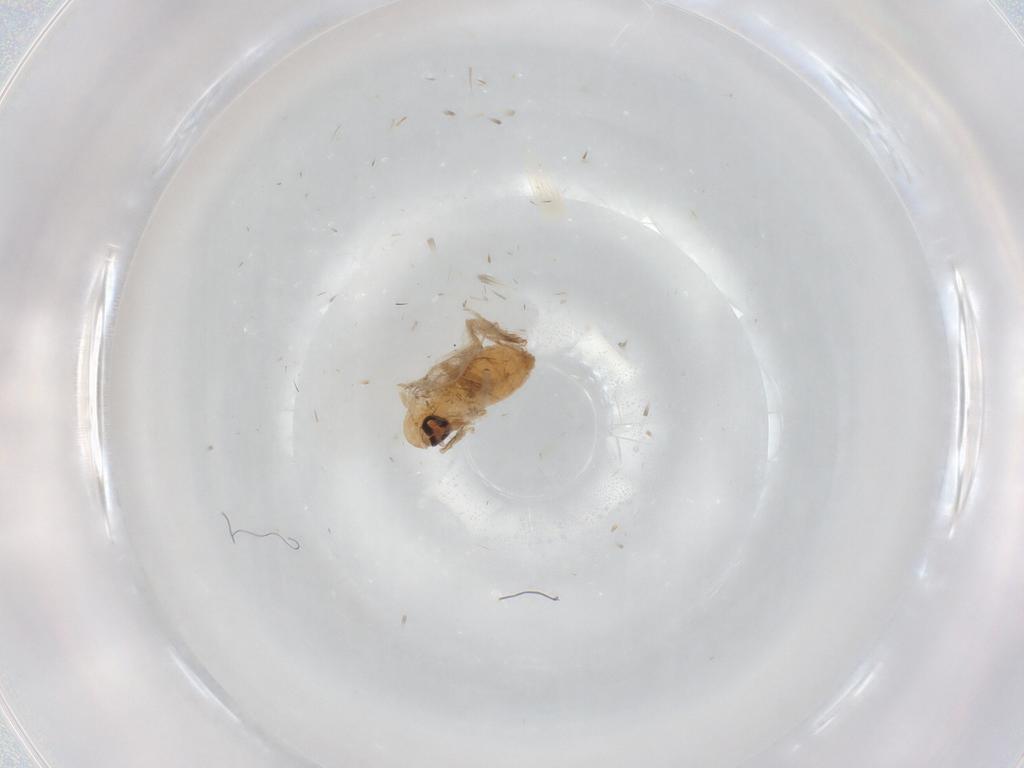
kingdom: Animalia
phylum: Arthropoda
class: Insecta
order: Diptera
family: Psychodidae
